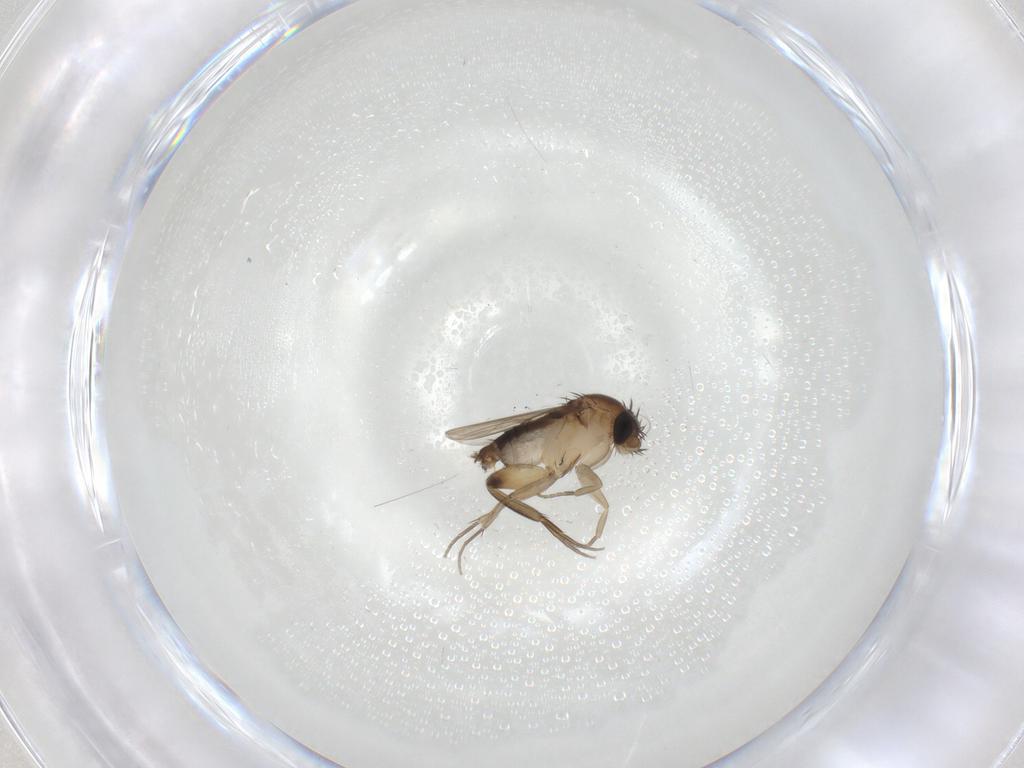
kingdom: Animalia
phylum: Arthropoda
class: Insecta
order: Diptera
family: Phoridae
